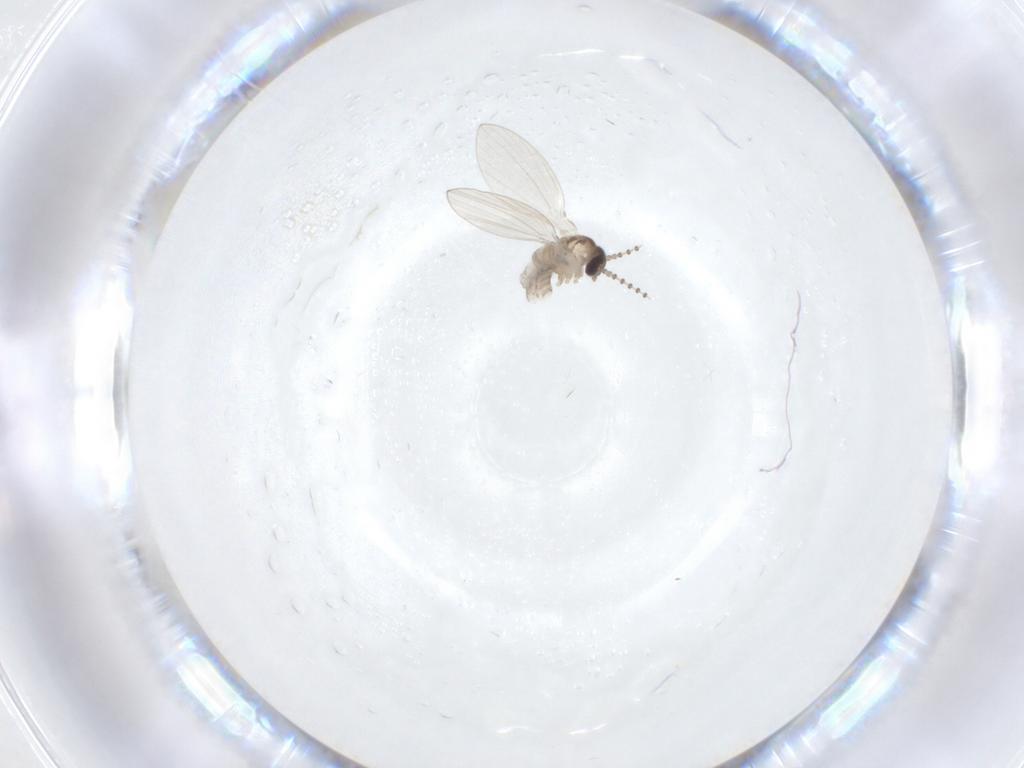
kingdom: Animalia
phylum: Arthropoda
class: Insecta
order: Diptera
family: Psychodidae
